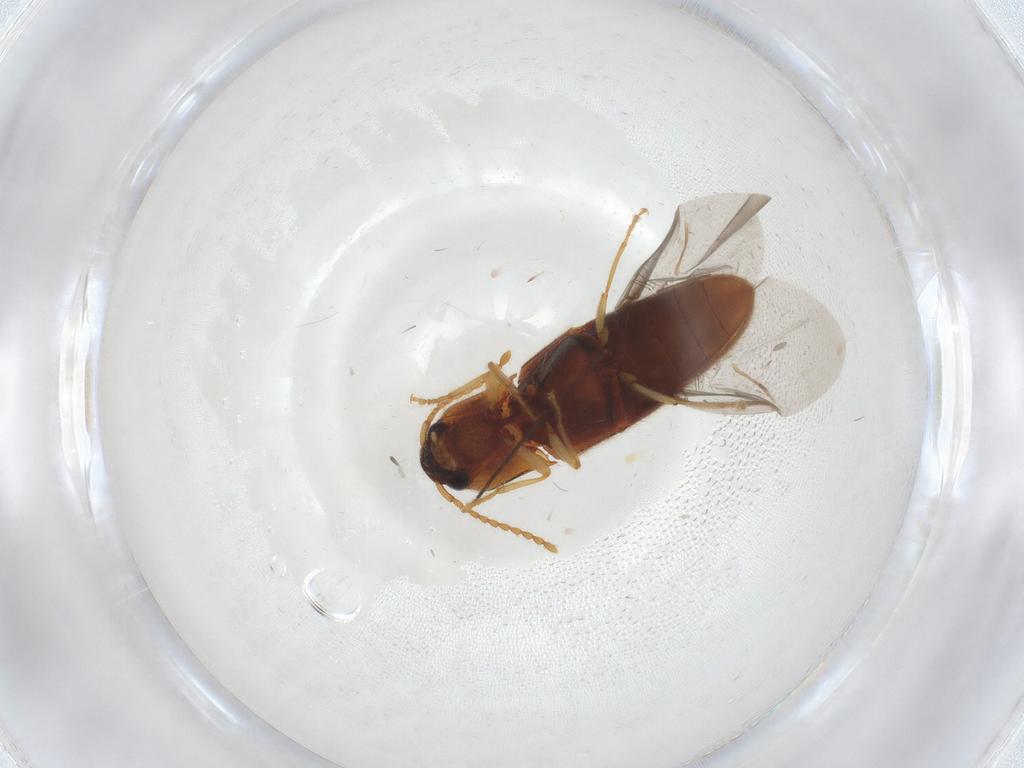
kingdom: Animalia
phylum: Arthropoda
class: Insecta
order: Coleoptera
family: Elateridae
